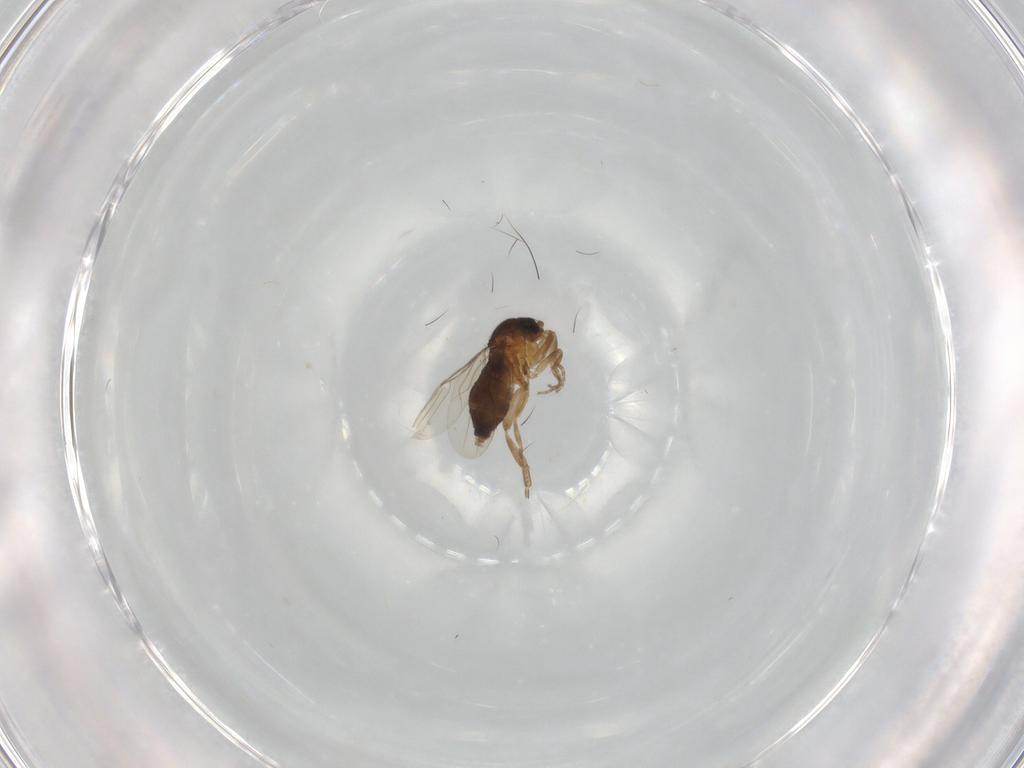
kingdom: Animalia
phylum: Arthropoda
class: Insecta
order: Diptera
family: Phoridae
